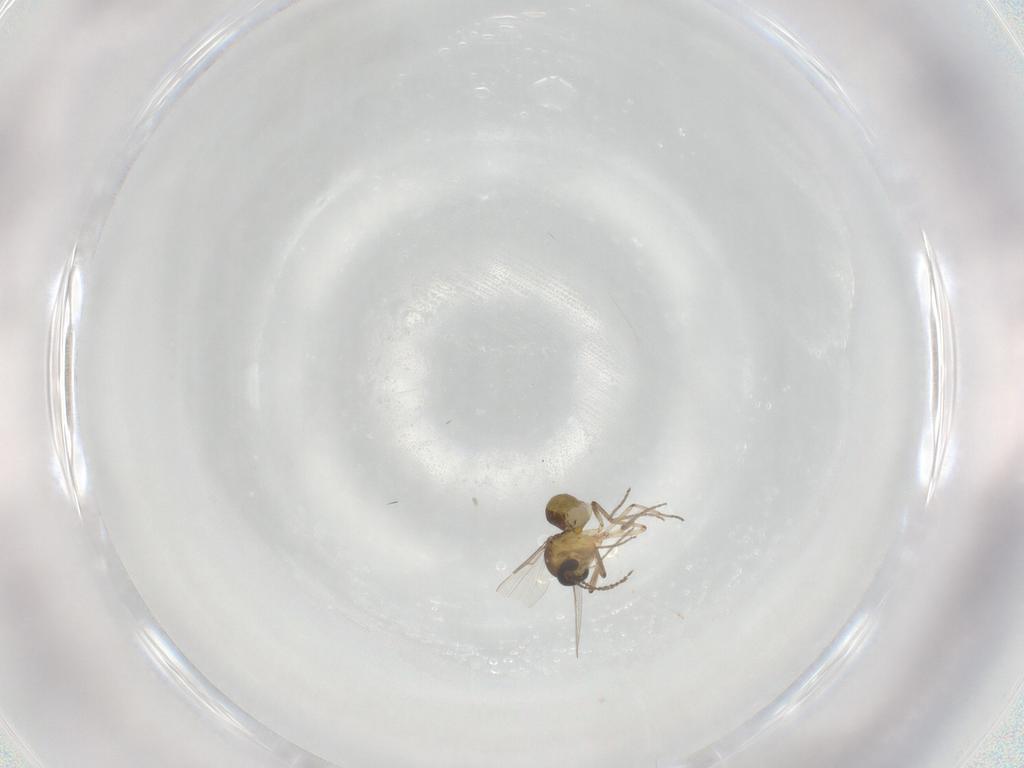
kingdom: Animalia
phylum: Arthropoda
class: Insecta
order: Diptera
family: Ceratopogonidae
